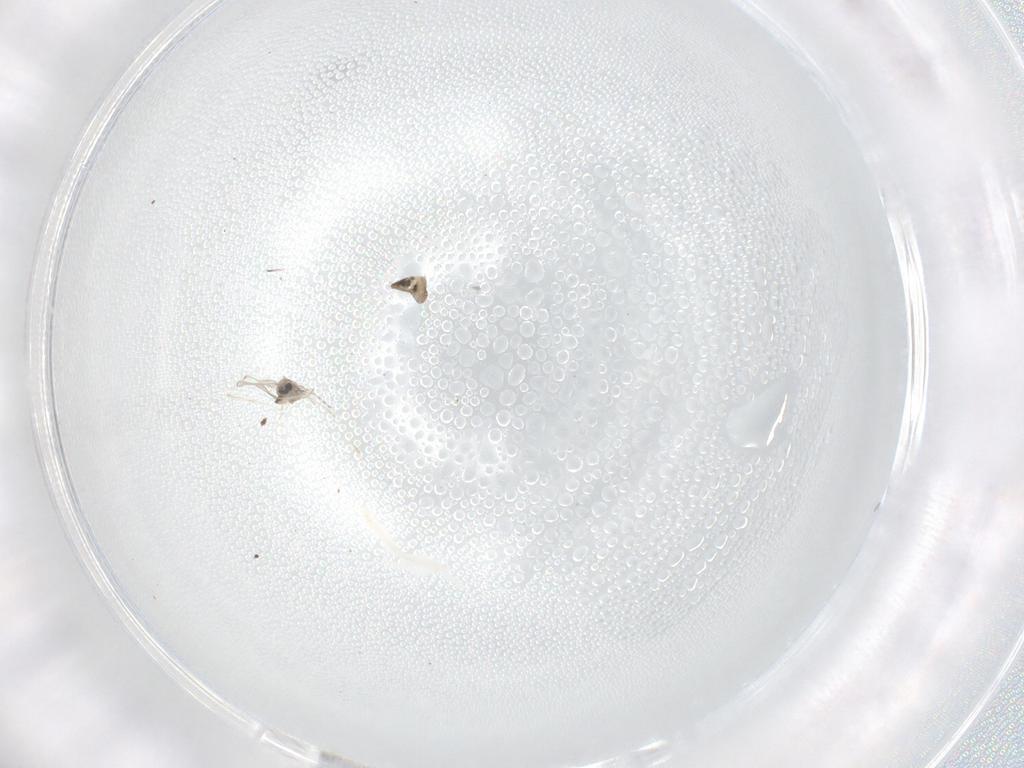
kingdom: Animalia
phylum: Arthropoda
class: Insecta
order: Diptera
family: Cecidomyiidae
